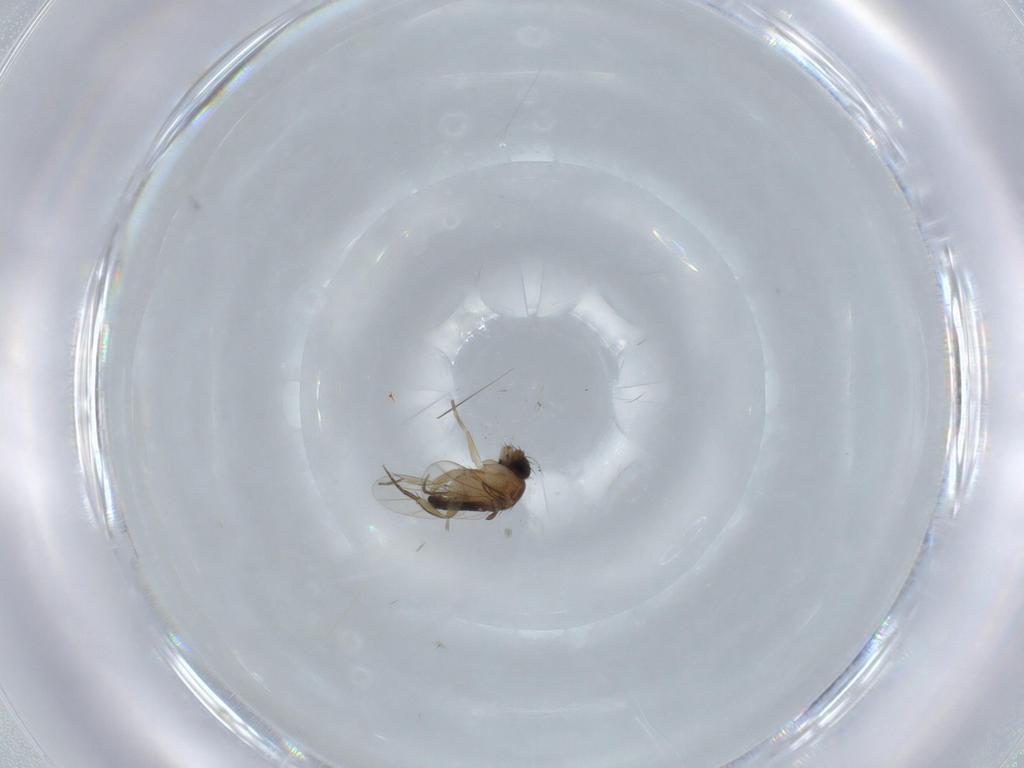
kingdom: Animalia
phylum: Arthropoda
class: Insecta
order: Diptera
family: Phoridae
